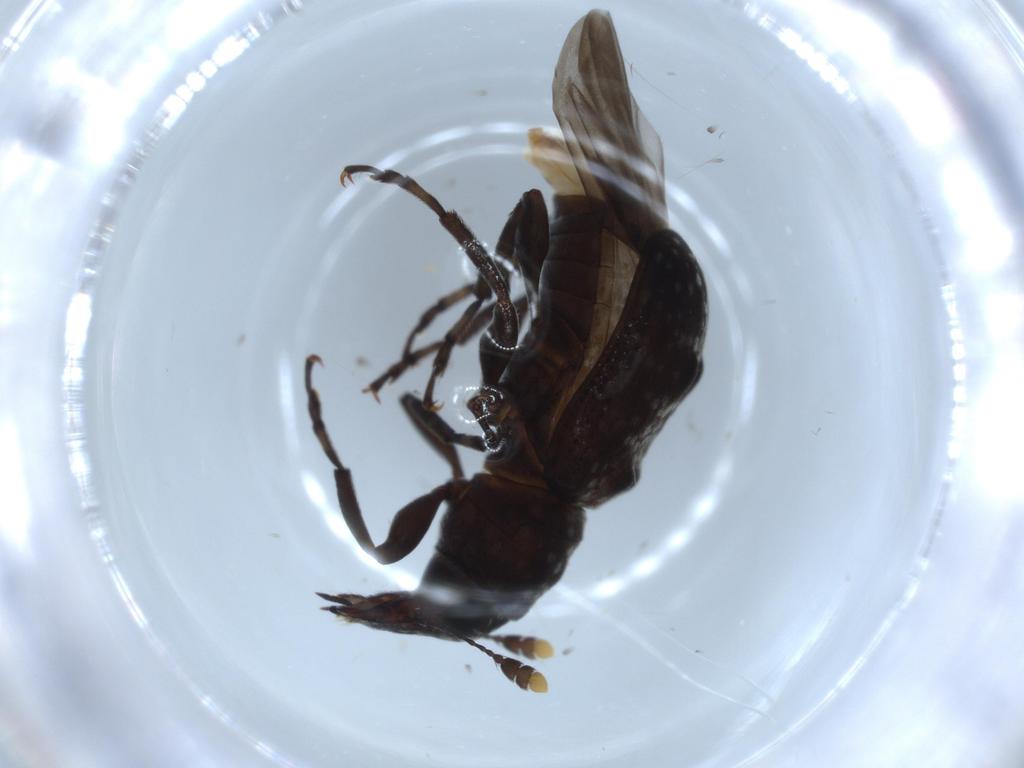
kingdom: Animalia
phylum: Arthropoda
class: Insecta
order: Coleoptera
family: Anthribidae
